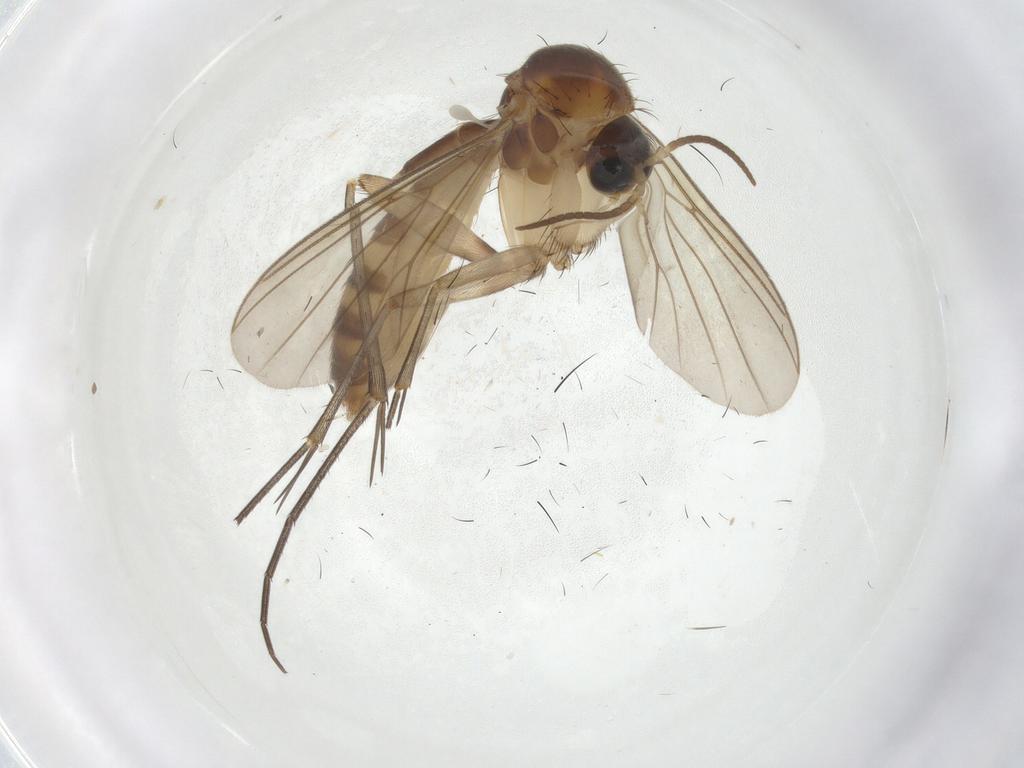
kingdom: Animalia
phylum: Arthropoda
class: Insecta
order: Diptera
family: Mycetophilidae
